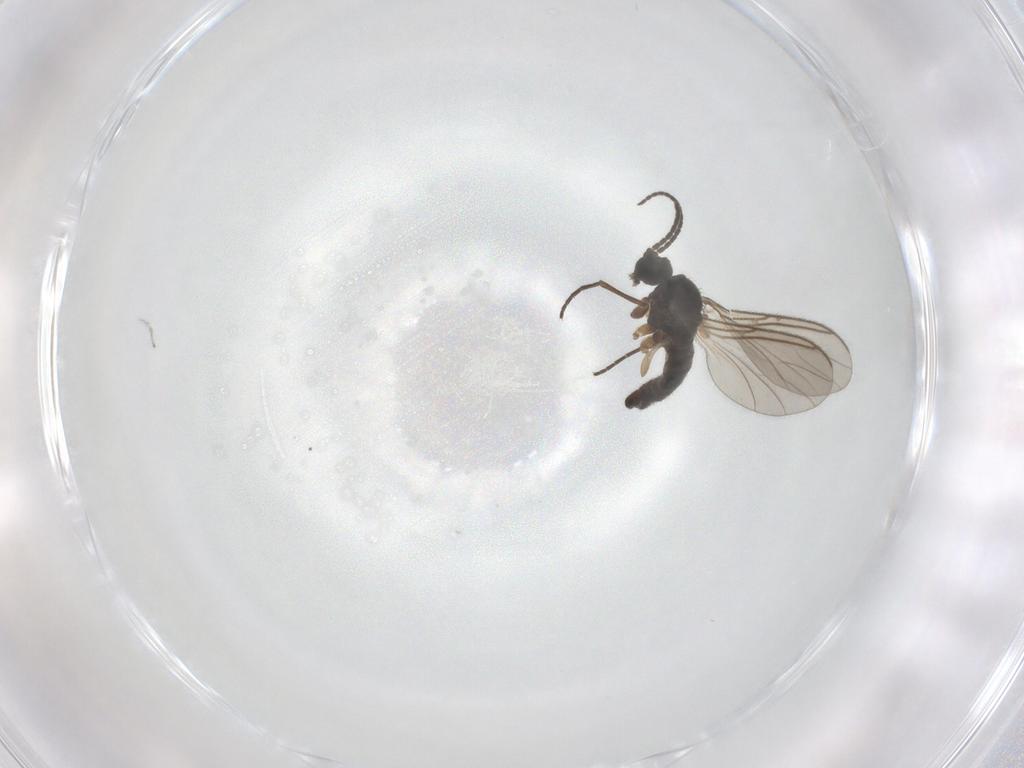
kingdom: Animalia
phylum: Arthropoda
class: Insecta
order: Diptera
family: Sciaridae
